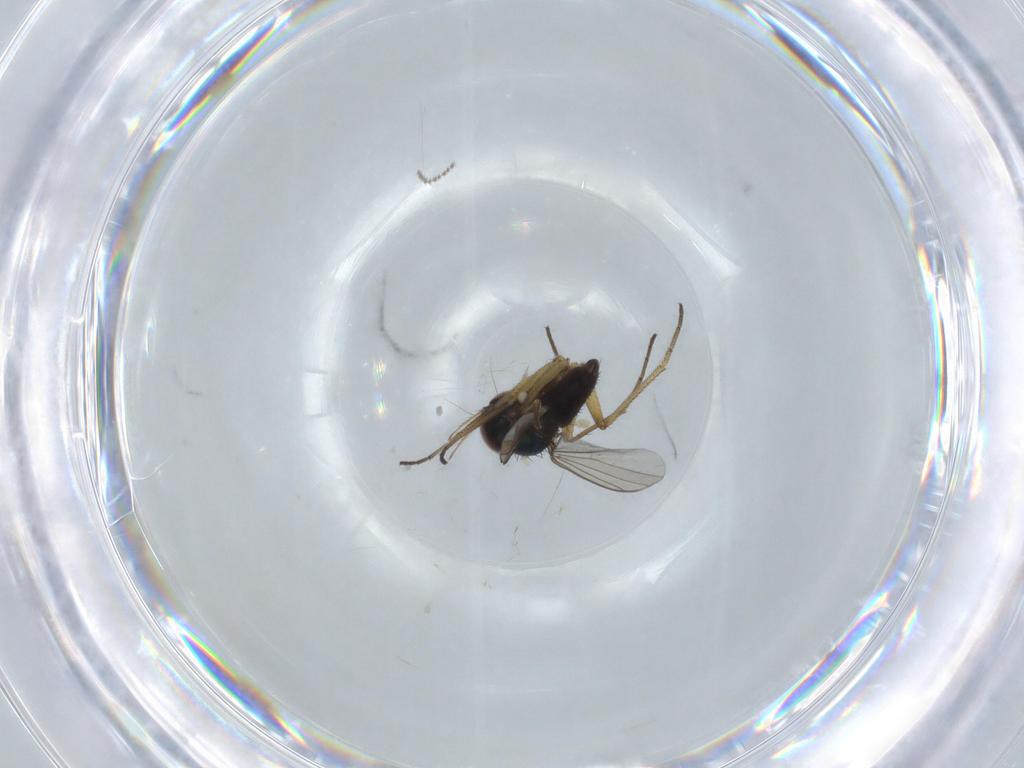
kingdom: Animalia
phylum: Arthropoda
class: Insecta
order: Diptera
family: Dolichopodidae
